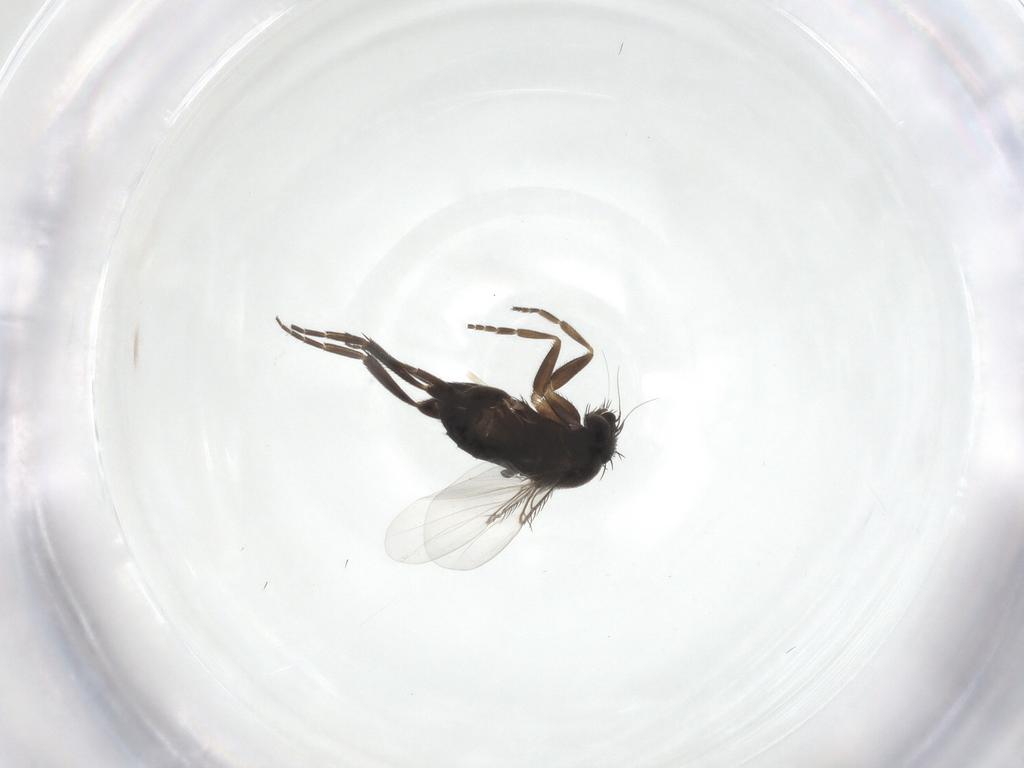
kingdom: Animalia
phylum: Arthropoda
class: Insecta
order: Diptera
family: Phoridae
